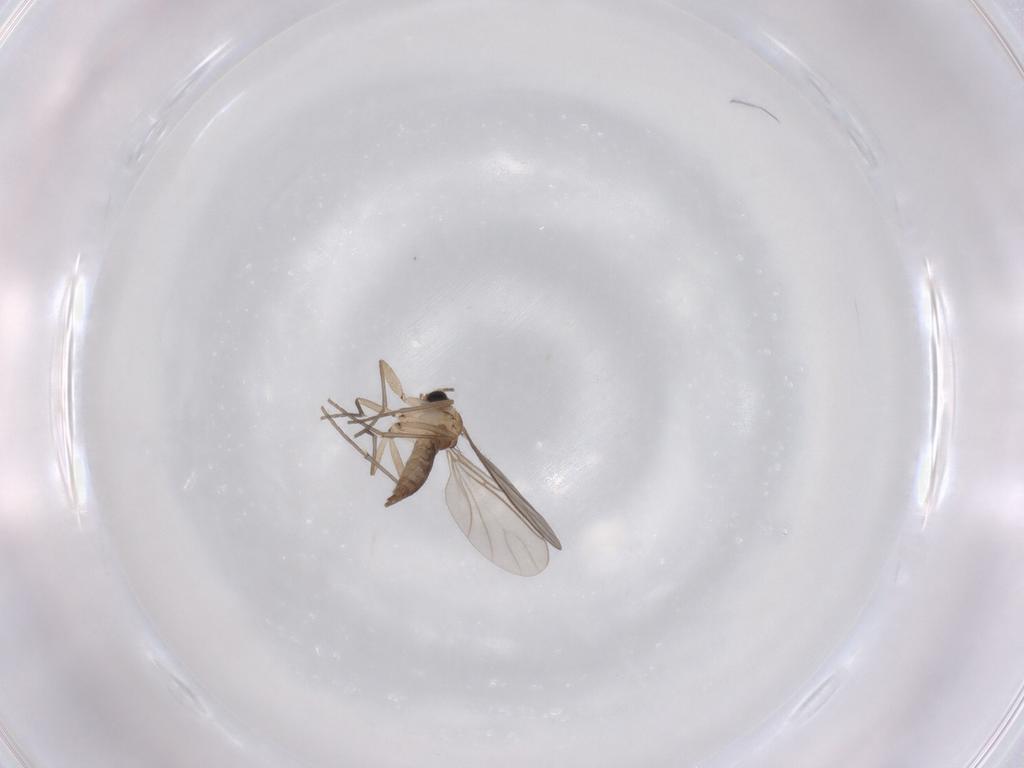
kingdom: Animalia
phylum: Arthropoda
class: Insecta
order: Diptera
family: Sciaridae
